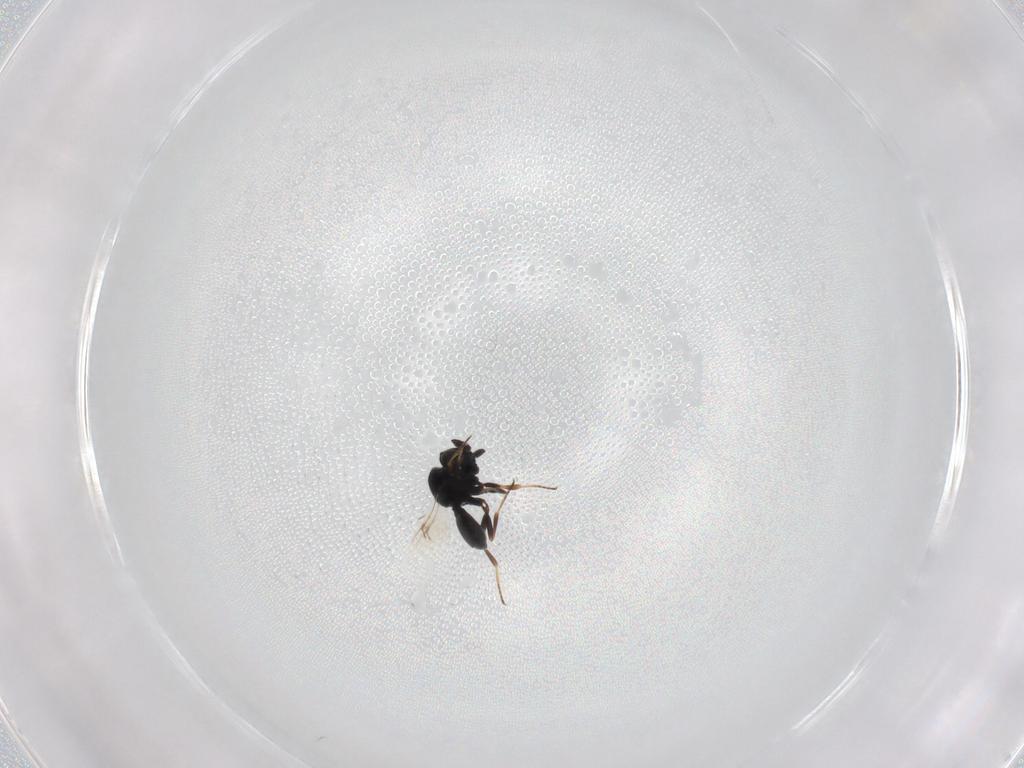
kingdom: Animalia
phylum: Arthropoda
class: Insecta
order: Hymenoptera
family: Scelionidae
